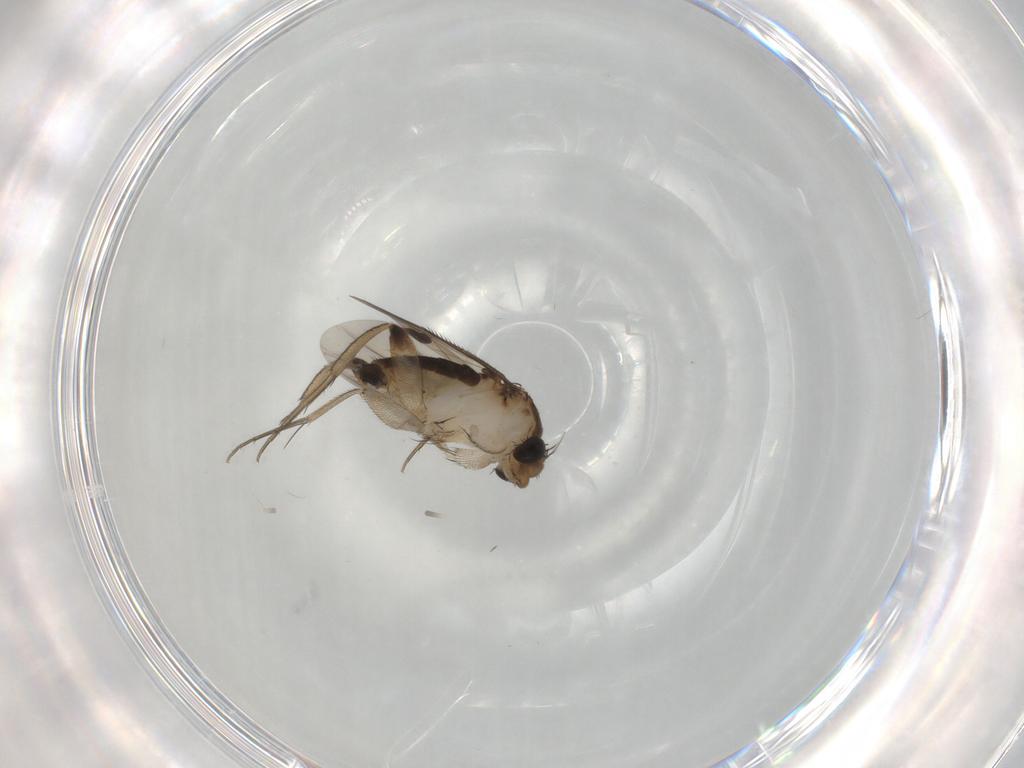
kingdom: Animalia
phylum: Arthropoda
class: Insecta
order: Diptera
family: Phoridae
